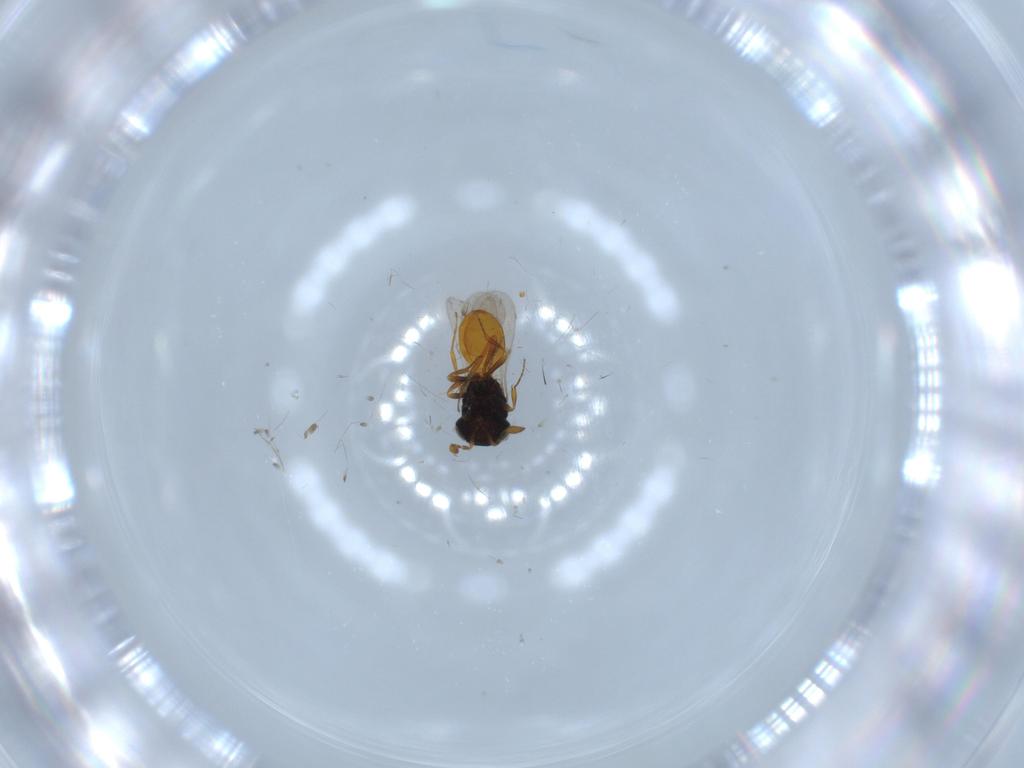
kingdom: Animalia
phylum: Arthropoda
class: Insecta
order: Hymenoptera
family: Scelionidae
